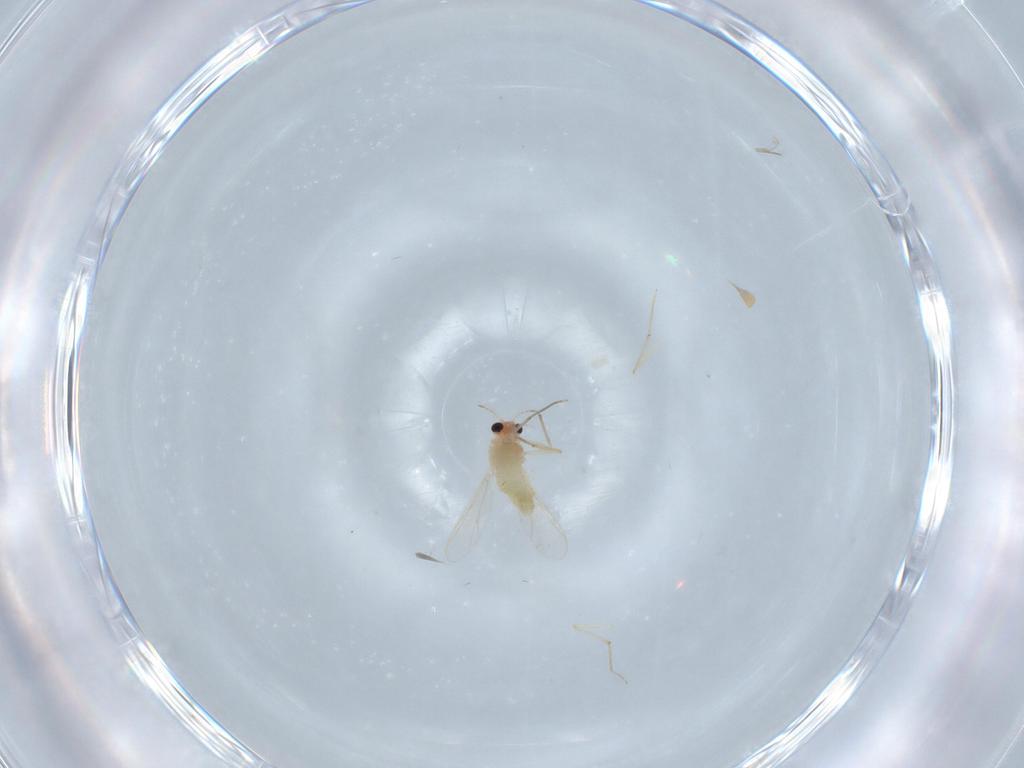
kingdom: Animalia
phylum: Arthropoda
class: Insecta
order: Diptera
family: Chironomidae
